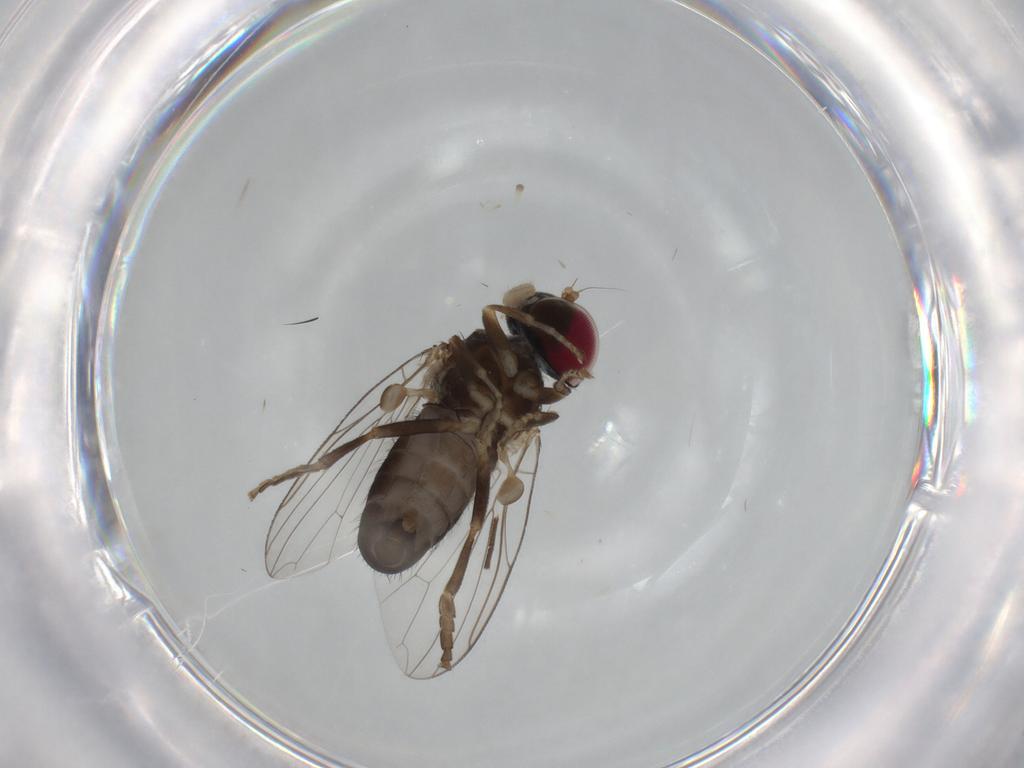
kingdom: Animalia
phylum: Arthropoda
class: Insecta
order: Diptera
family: Platypezidae
